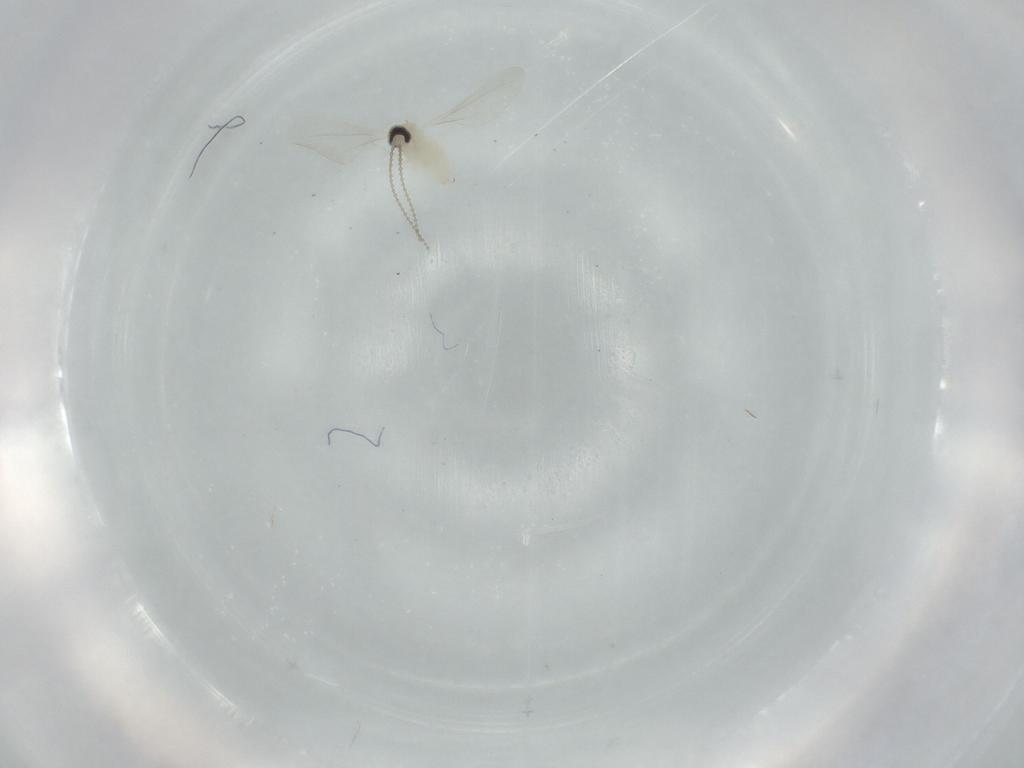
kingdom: Animalia
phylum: Arthropoda
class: Insecta
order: Diptera
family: Cecidomyiidae
